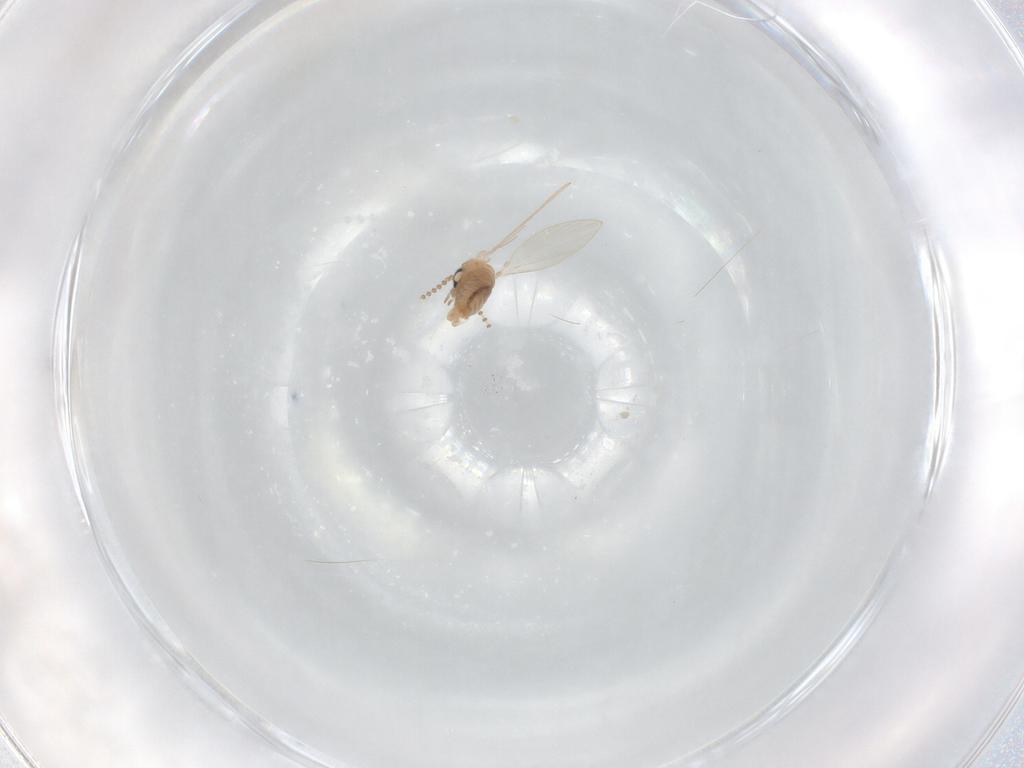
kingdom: Animalia
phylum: Arthropoda
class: Insecta
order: Diptera
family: Psychodidae
